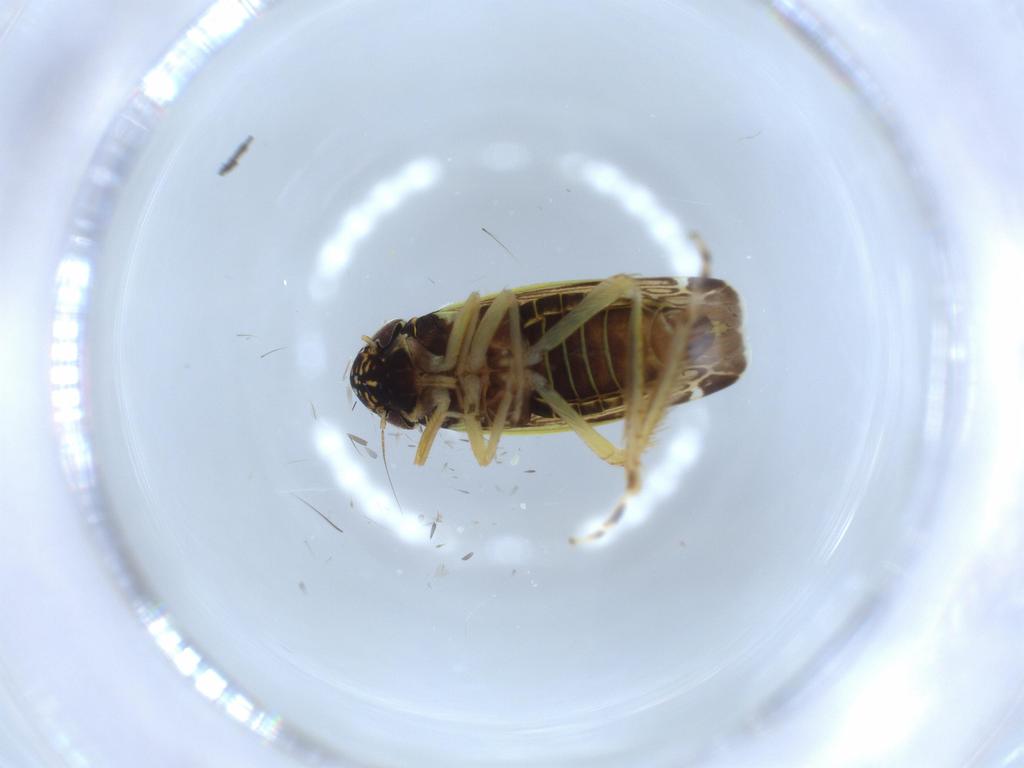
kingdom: Animalia
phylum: Arthropoda
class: Insecta
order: Hemiptera
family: Cicadellidae
